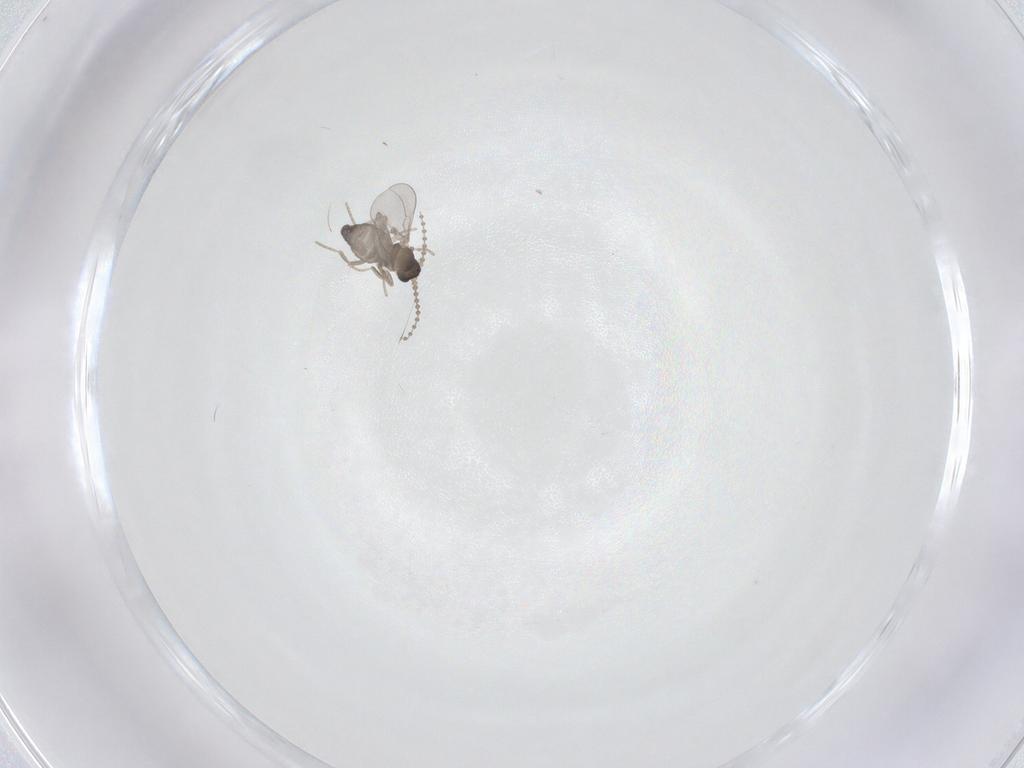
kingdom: Animalia
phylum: Arthropoda
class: Insecta
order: Diptera
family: Cecidomyiidae
